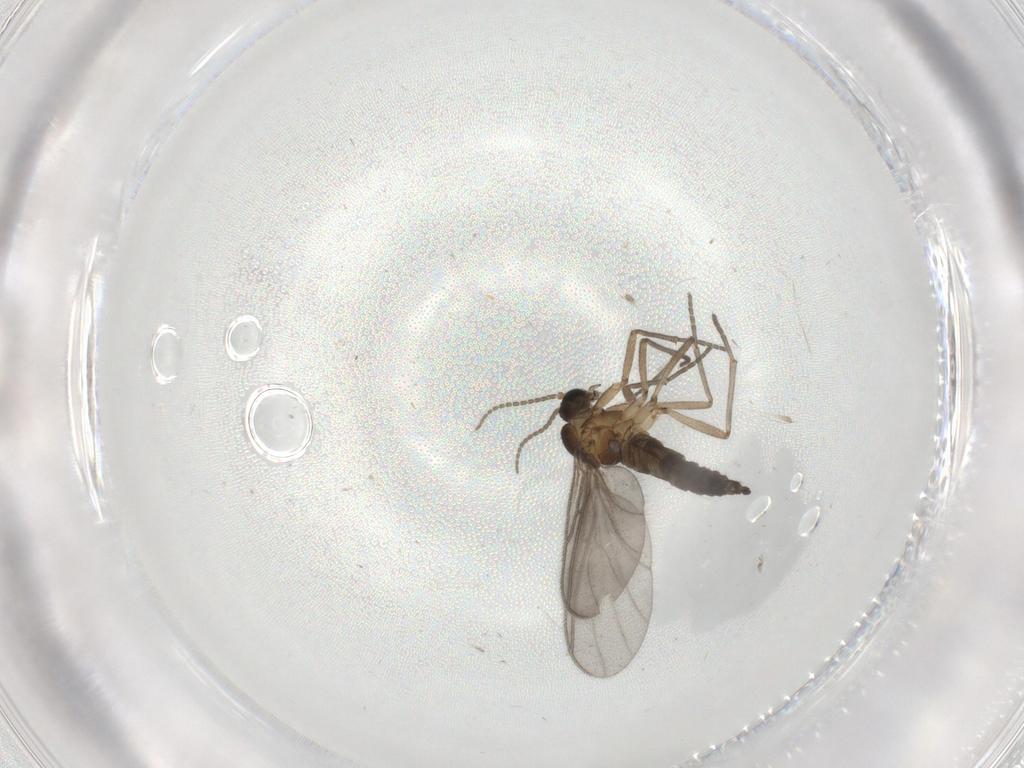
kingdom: Animalia
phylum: Arthropoda
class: Insecta
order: Diptera
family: Sciaridae
